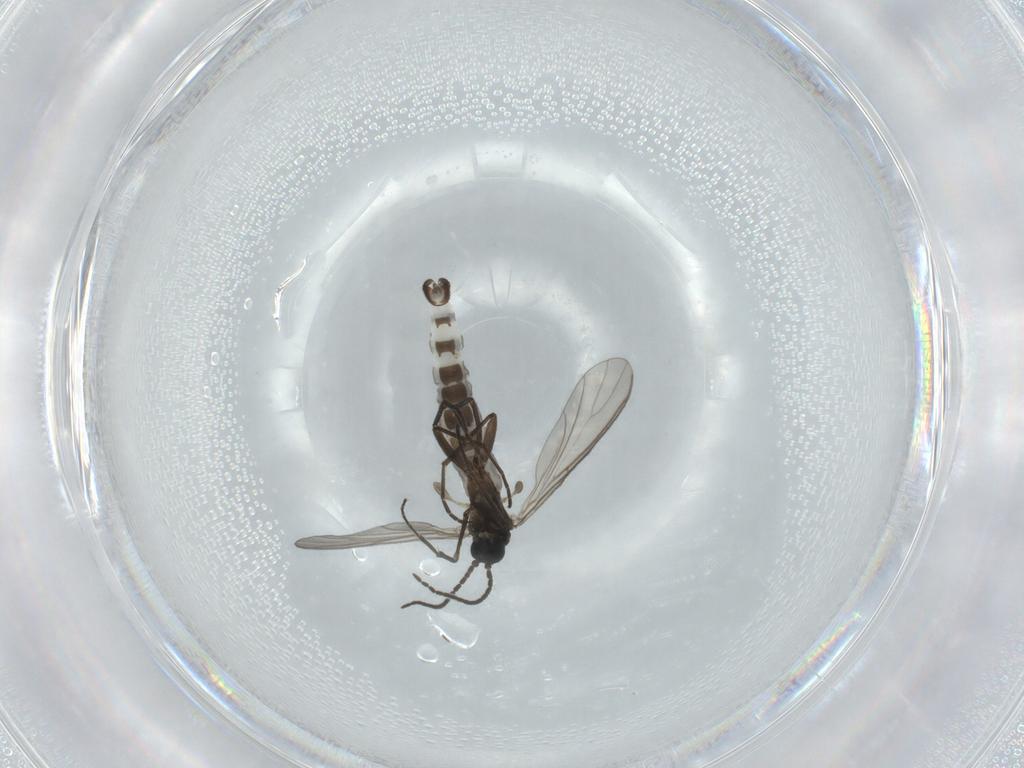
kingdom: Animalia
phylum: Arthropoda
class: Insecta
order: Diptera
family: Sciaridae
